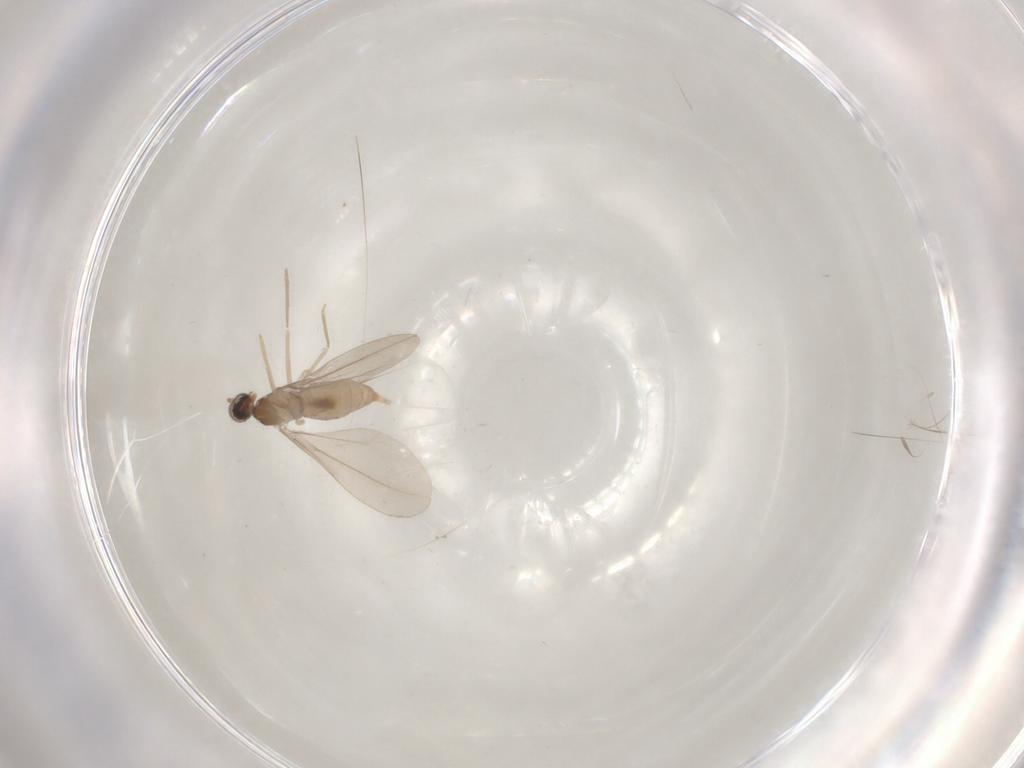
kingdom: Animalia
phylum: Arthropoda
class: Insecta
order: Diptera
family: Cecidomyiidae
